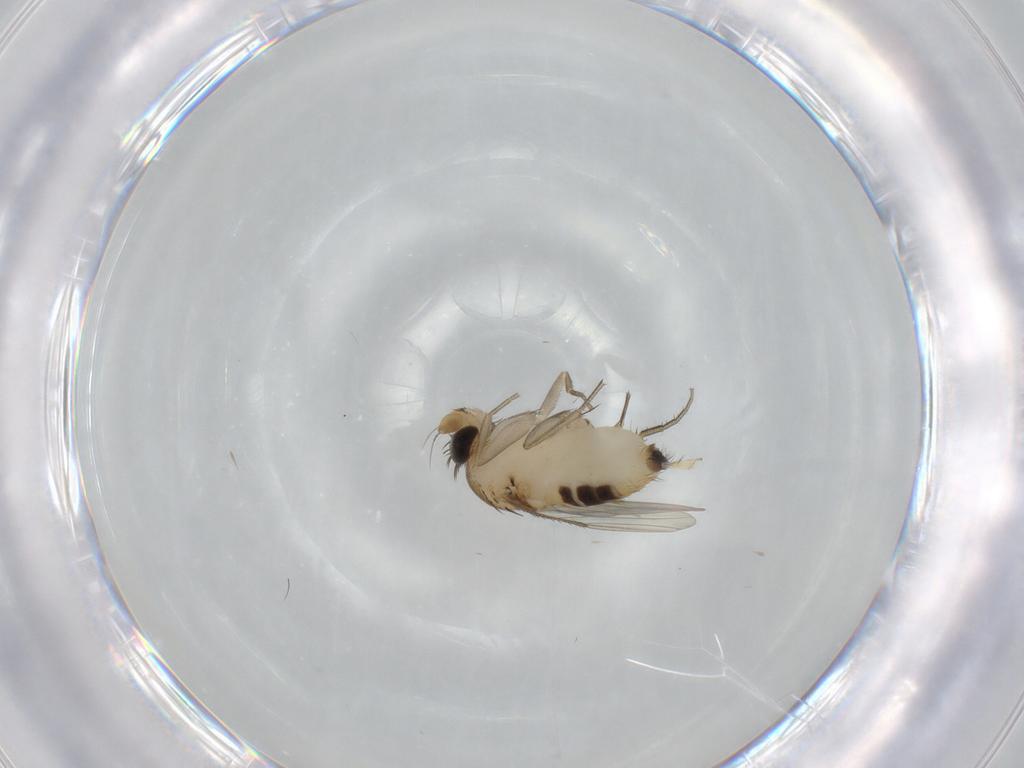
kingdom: Animalia
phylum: Arthropoda
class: Insecta
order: Diptera
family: Phoridae
